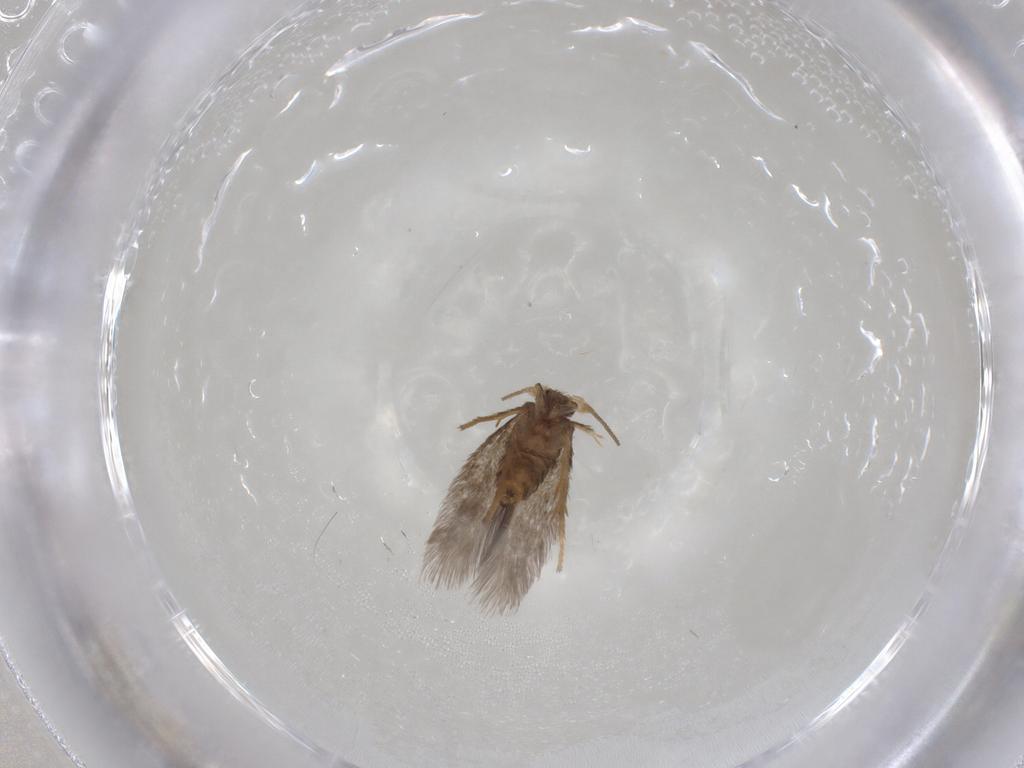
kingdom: Animalia
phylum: Arthropoda
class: Insecta
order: Lepidoptera
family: Nepticulidae
